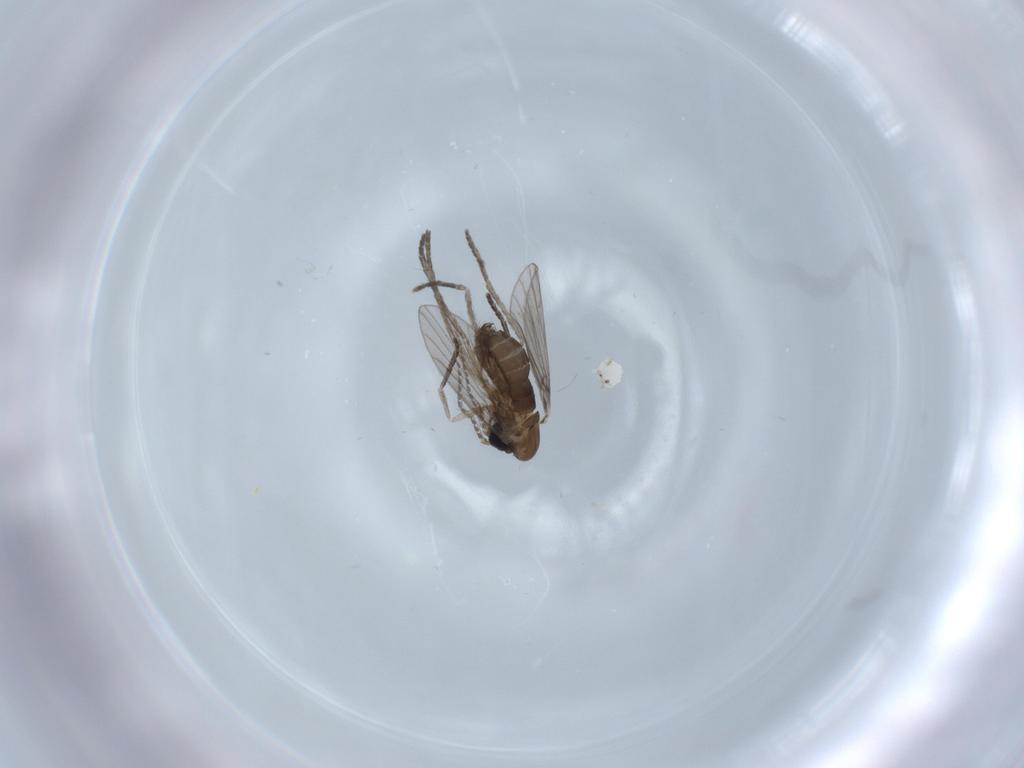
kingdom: Animalia
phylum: Arthropoda
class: Insecta
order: Diptera
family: Psychodidae
